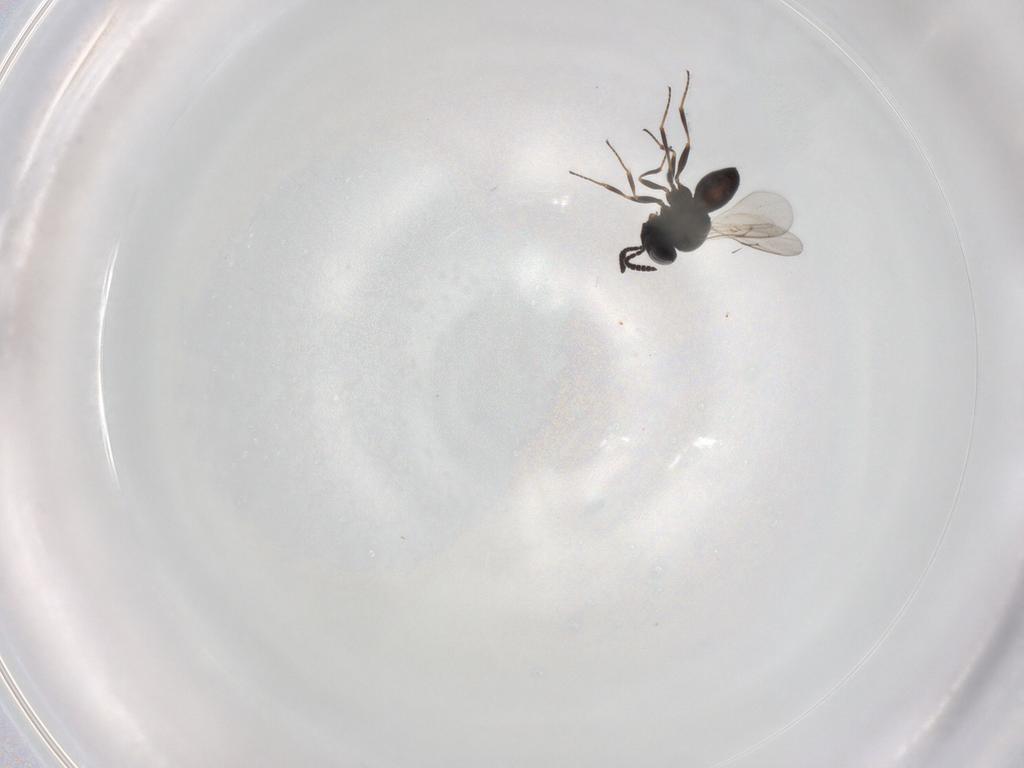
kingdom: Animalia
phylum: Arthropoda
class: Insecta
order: Hymenoptera
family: Scelionidae
